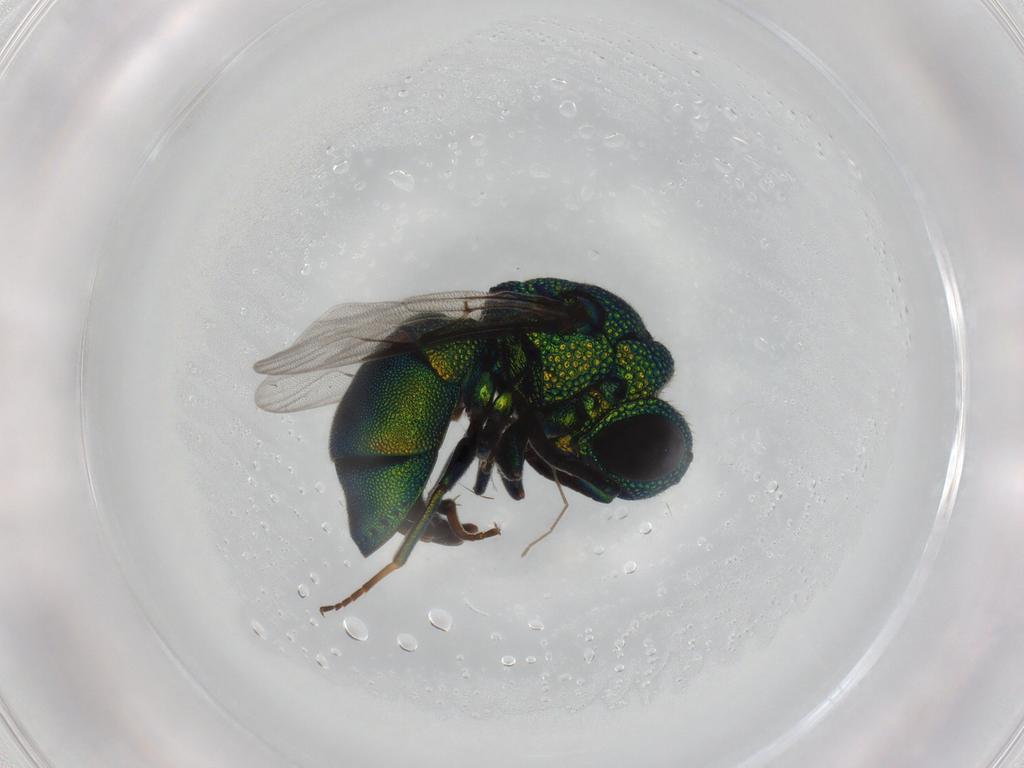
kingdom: Animalia
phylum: Arthropoda
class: Insecta
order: Hymenoptera
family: Chrysididae
